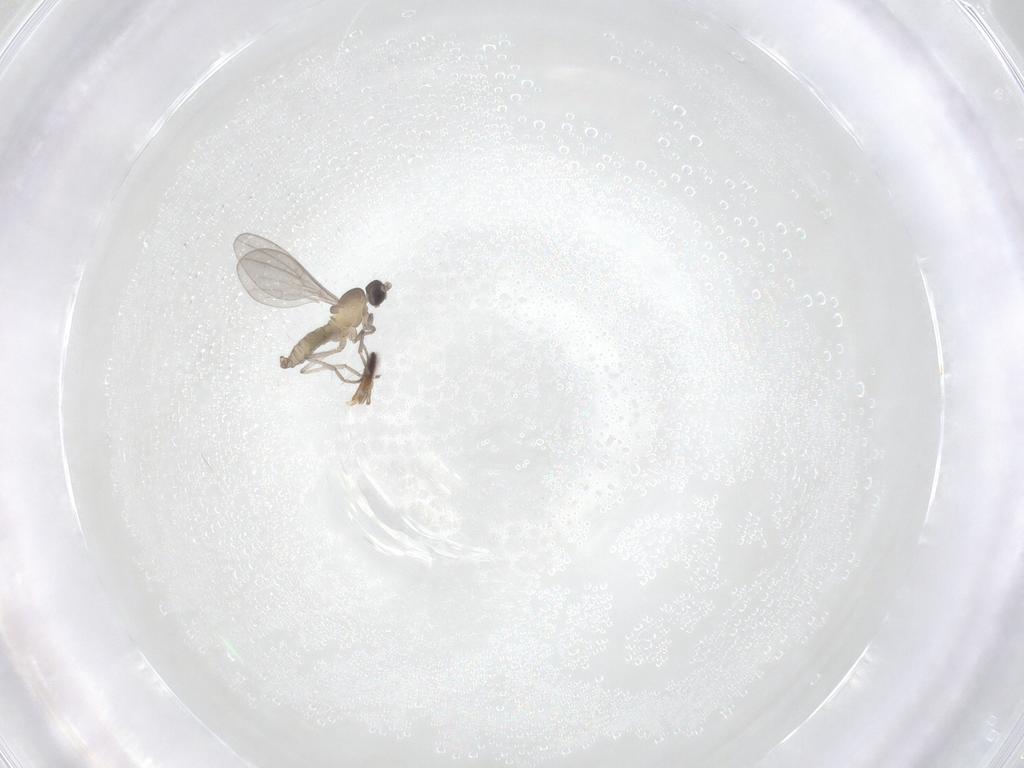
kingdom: Animalia
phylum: Arthropoda
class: Insecta
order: Diptera
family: Cecidomyiidae
